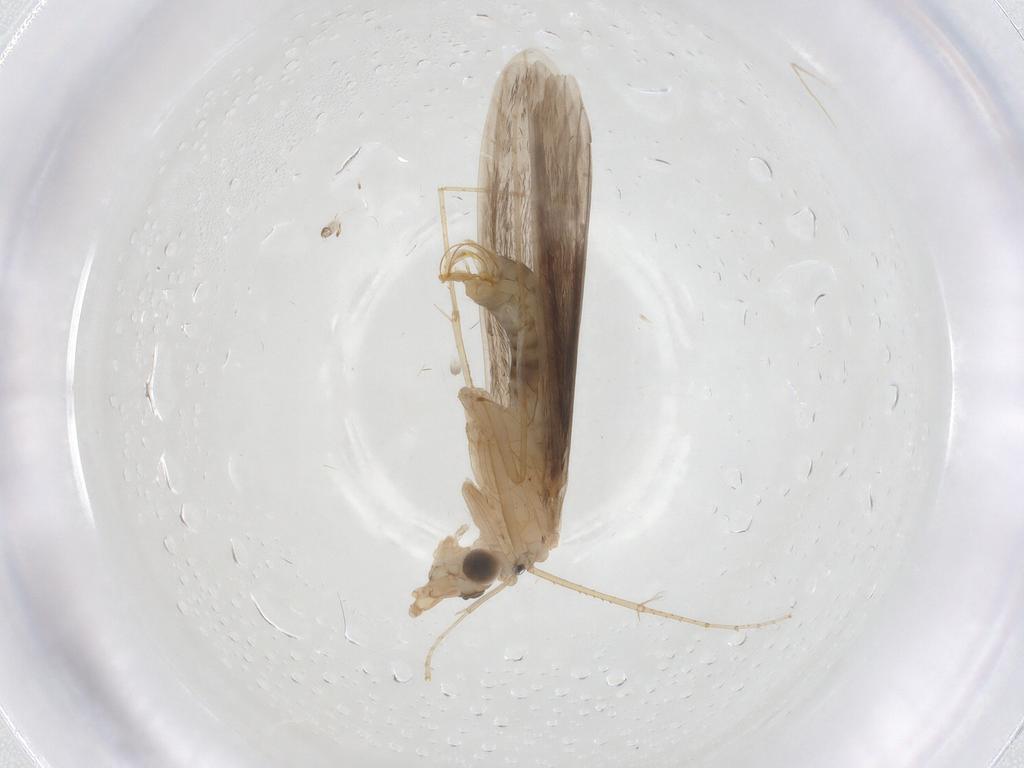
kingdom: Animalia
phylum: Arthropoda
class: Insecta
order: Trichoptera
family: Leptoceridae
